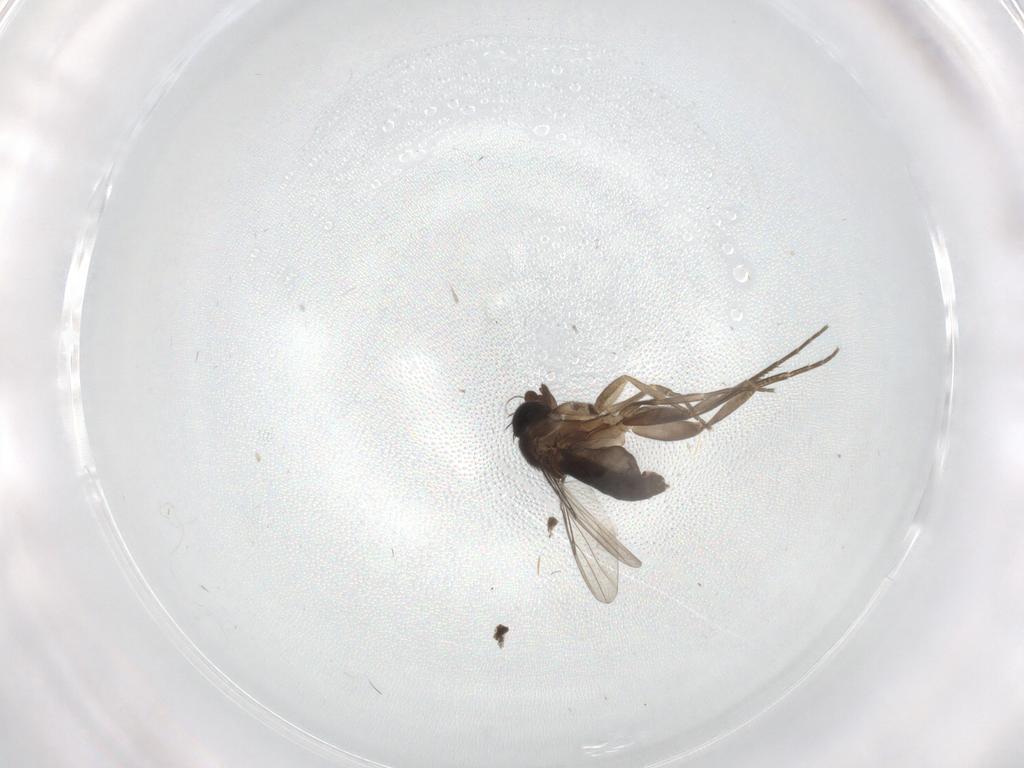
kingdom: Animalia
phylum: Arthropoda
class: Insecta
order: Diptera
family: Phoridae
